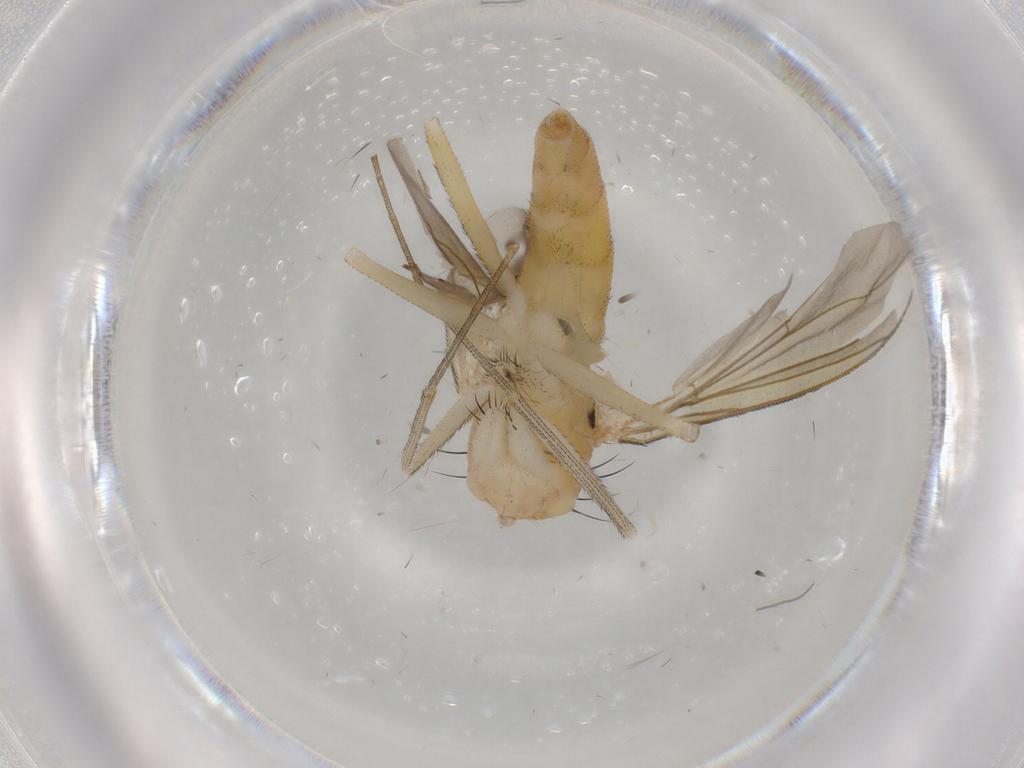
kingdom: Animalia
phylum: Arthropoda
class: Insecta
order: Diptera
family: Dolichopodidae
